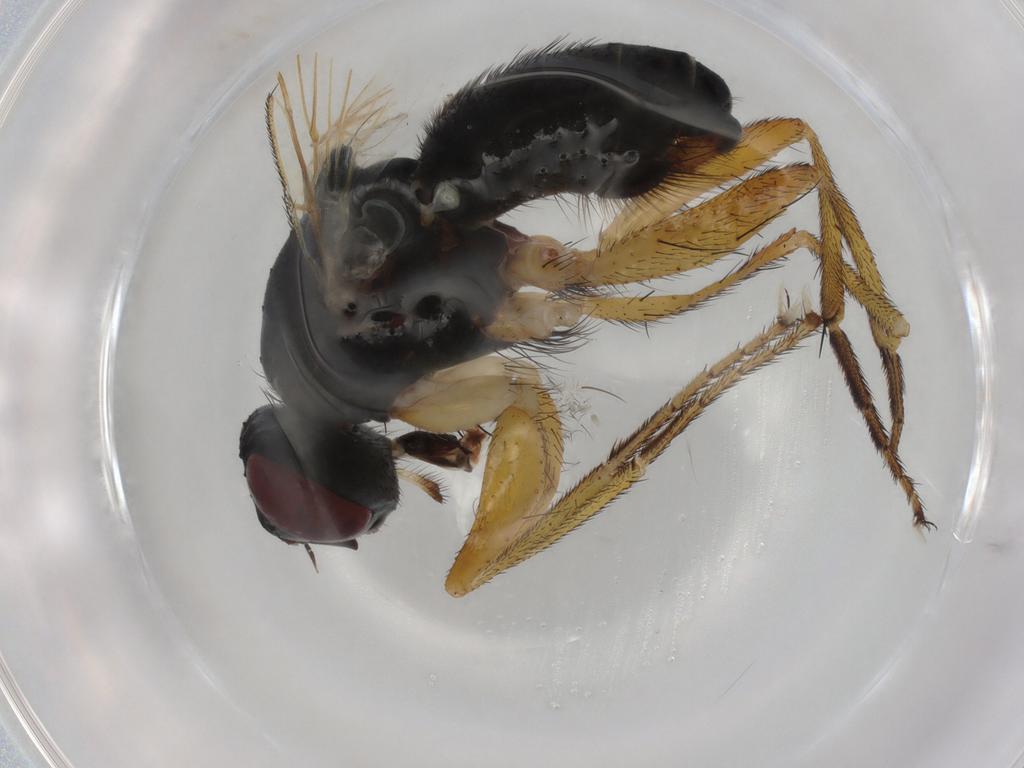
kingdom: Animalia
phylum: Arthropoda
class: Insecta
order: Diptera
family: Muscidae
